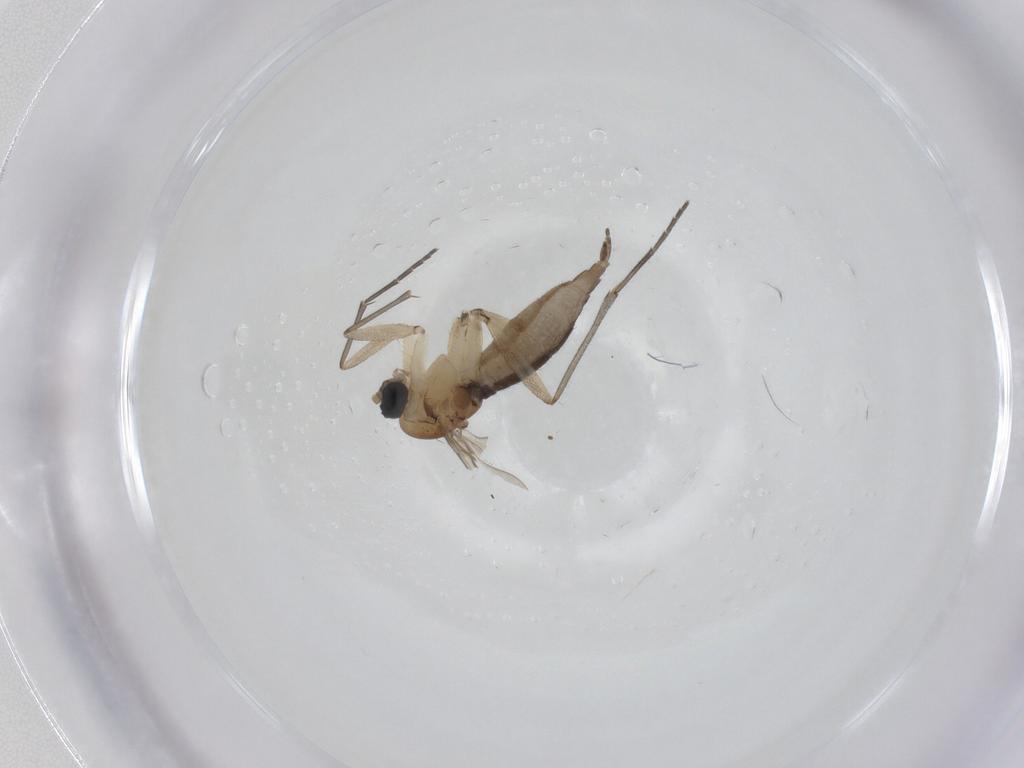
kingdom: Animalia
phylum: Arthropoda
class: Insecta
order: Diptera
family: Sciaridae
